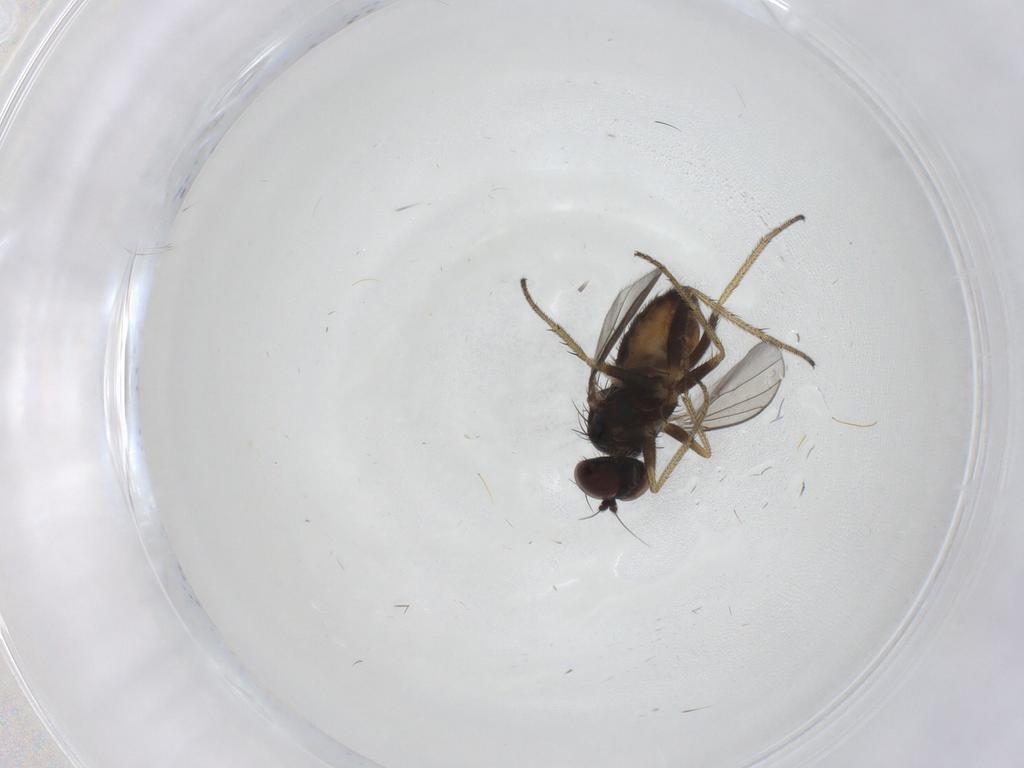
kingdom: Animalia
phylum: Arthropoda
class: Insecta
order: Diptera
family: Dolichopodidae
